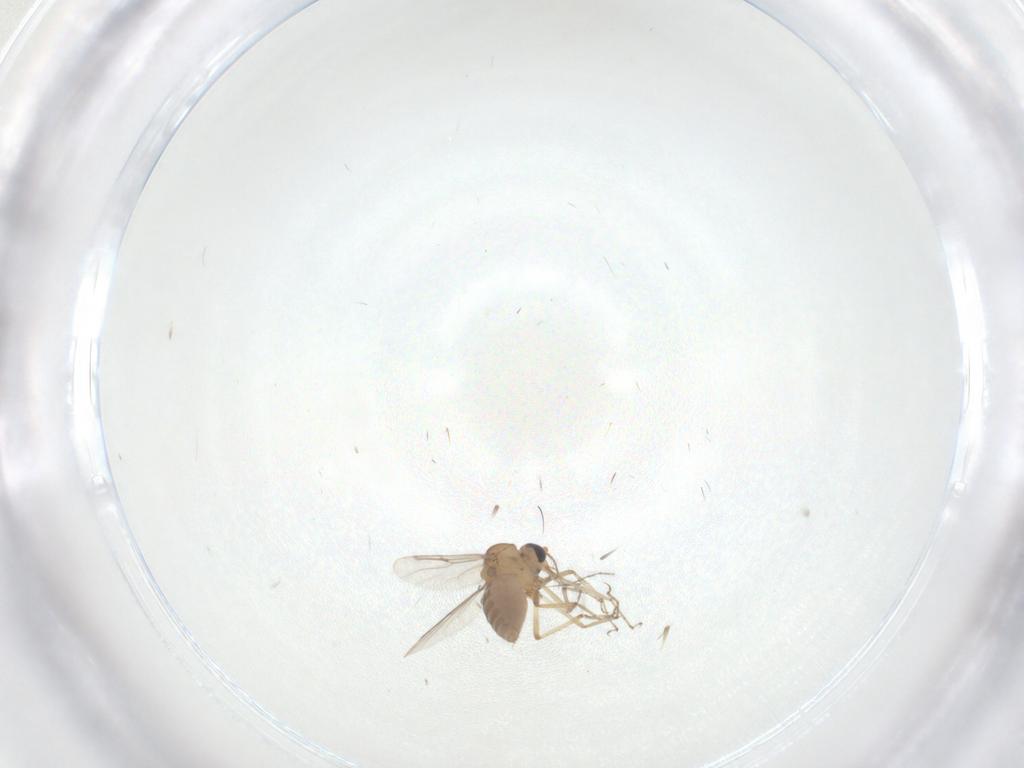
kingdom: Animalia
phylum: Arthropoda
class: Insecta
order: Diptera
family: Ceratopogonidae
